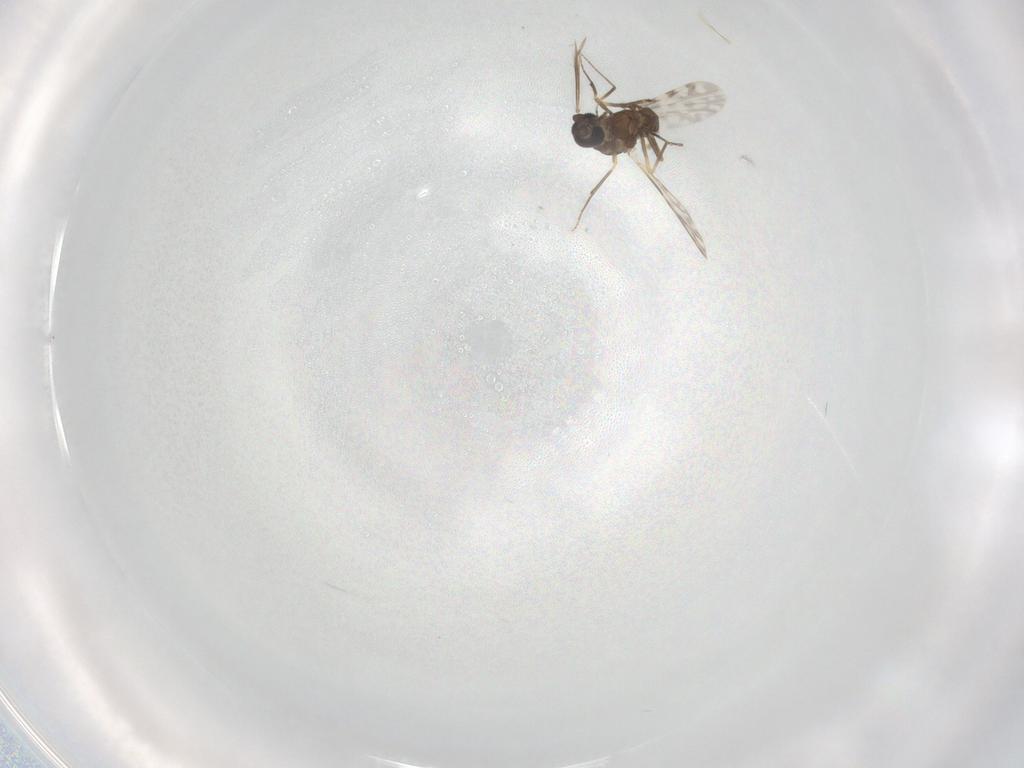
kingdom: Animalia
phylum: Arthropoda
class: Insecta
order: Diptera
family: Ceratopogonidae
